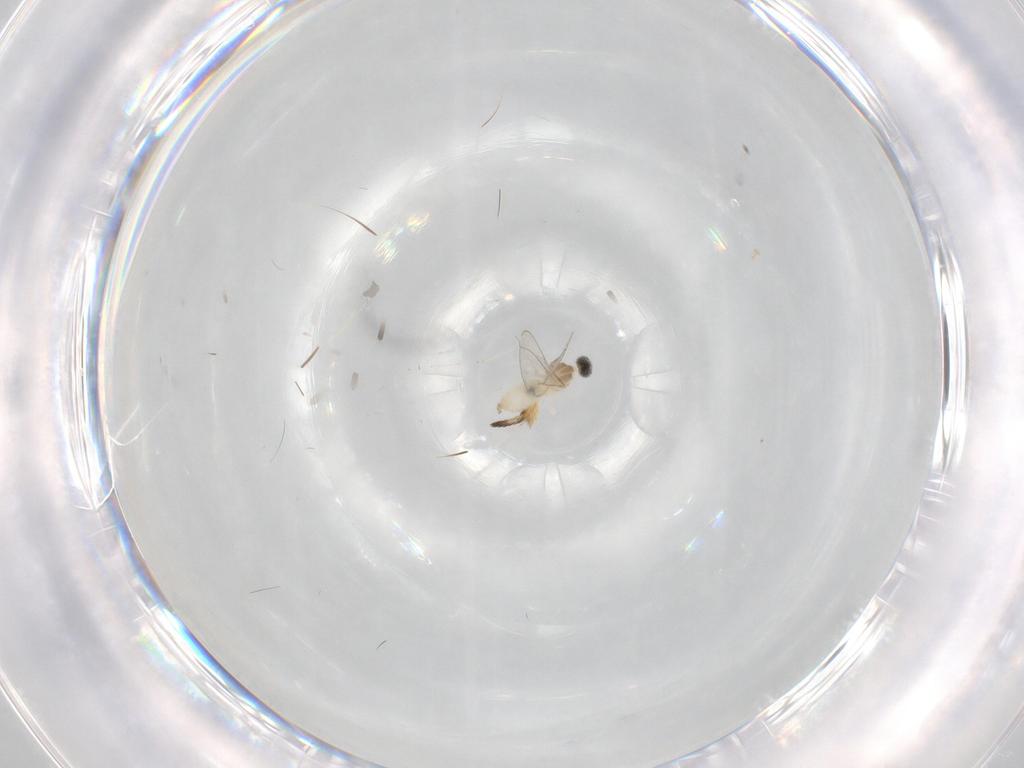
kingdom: Animalia
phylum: Arthropoda
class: Insecta
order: Diptera
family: Cecidomyiidae
